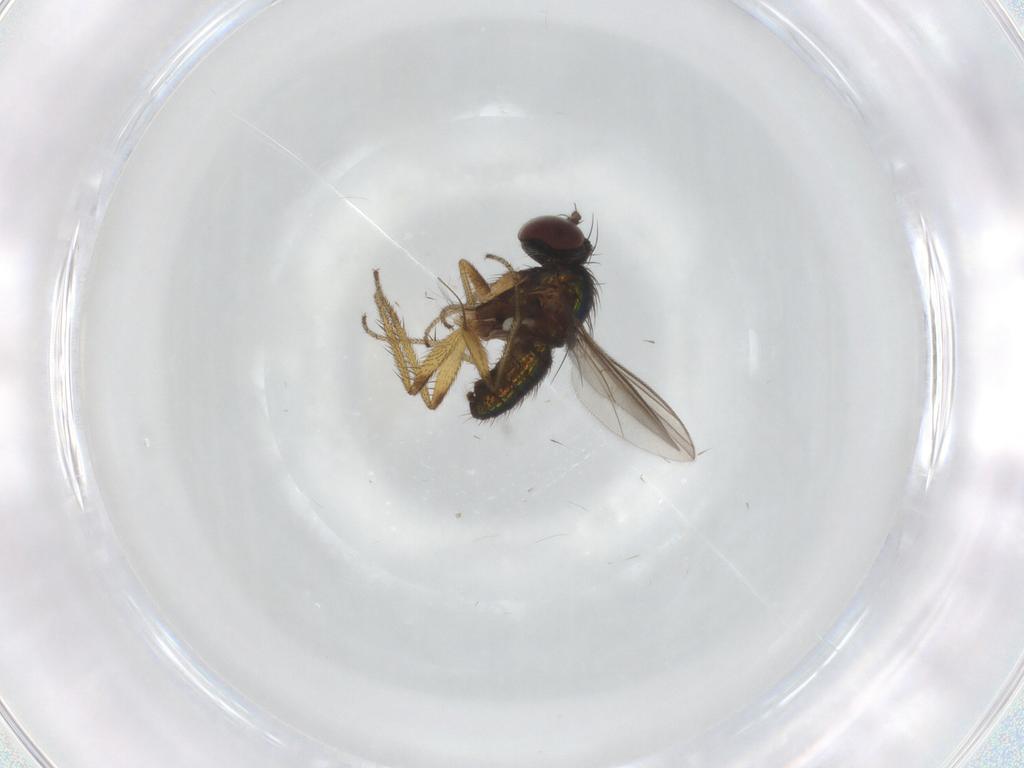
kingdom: Animalia
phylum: Arthropoda
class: Insecta
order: Diptera
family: Dolichopodidae
